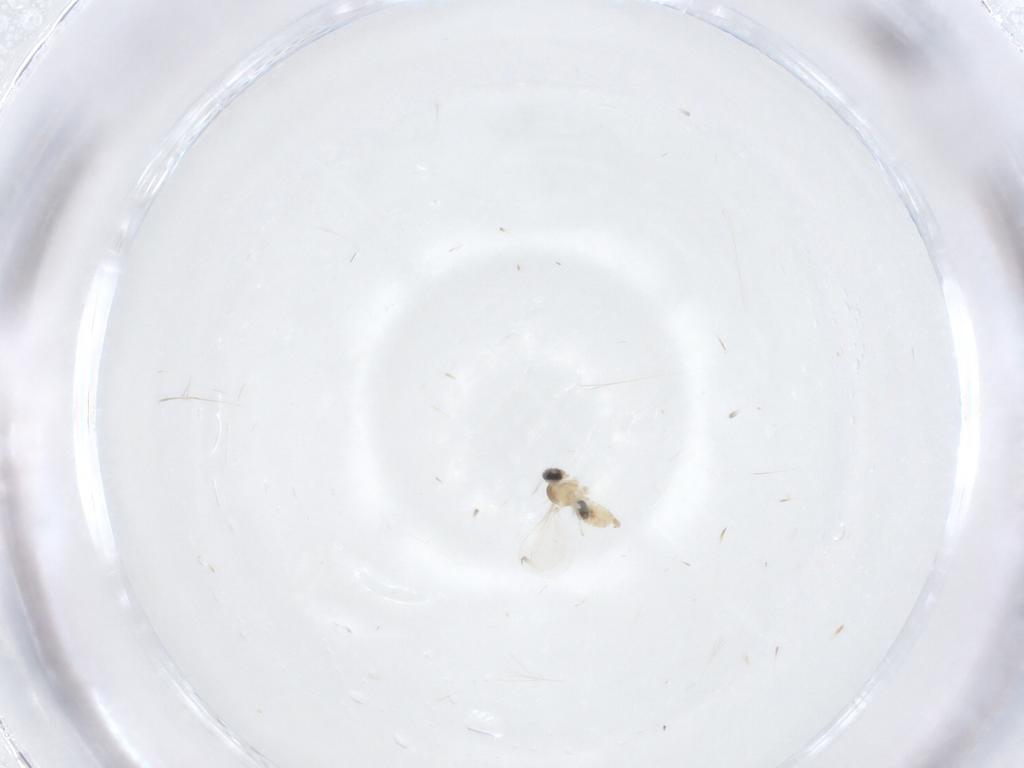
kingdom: Animalia
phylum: Arthropoda
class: Insecta
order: Diptera
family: Cecidomyiidae
